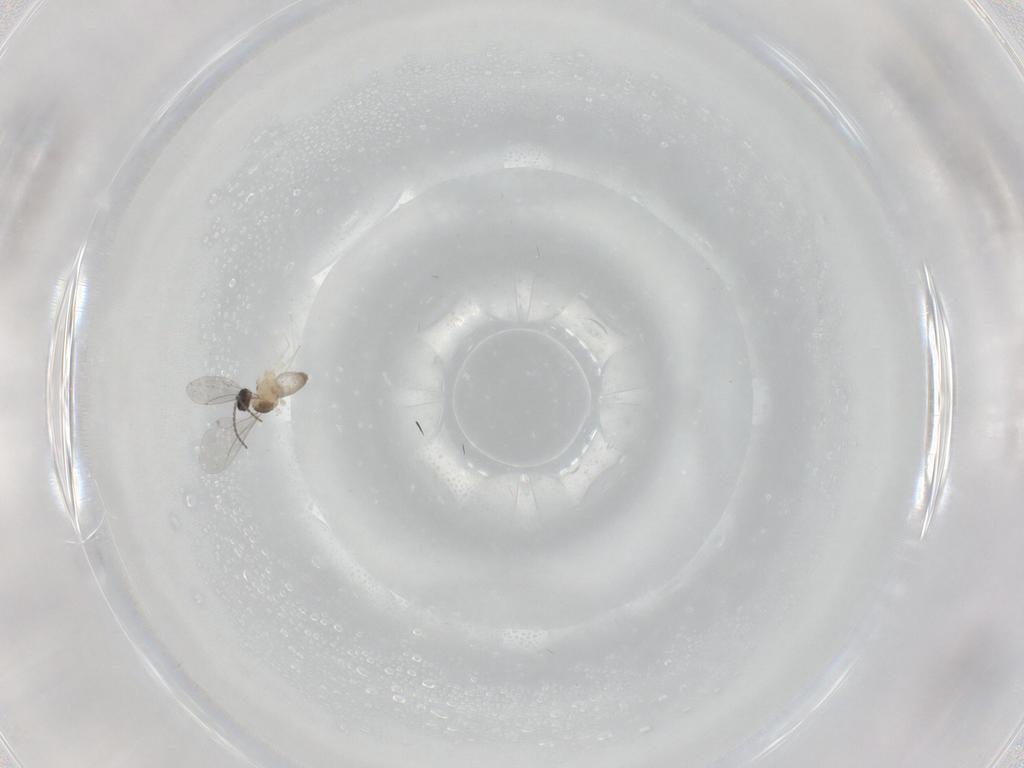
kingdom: Animalia
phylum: Arthropoda
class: Insecta
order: Diptera
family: Cecidomyiidae
